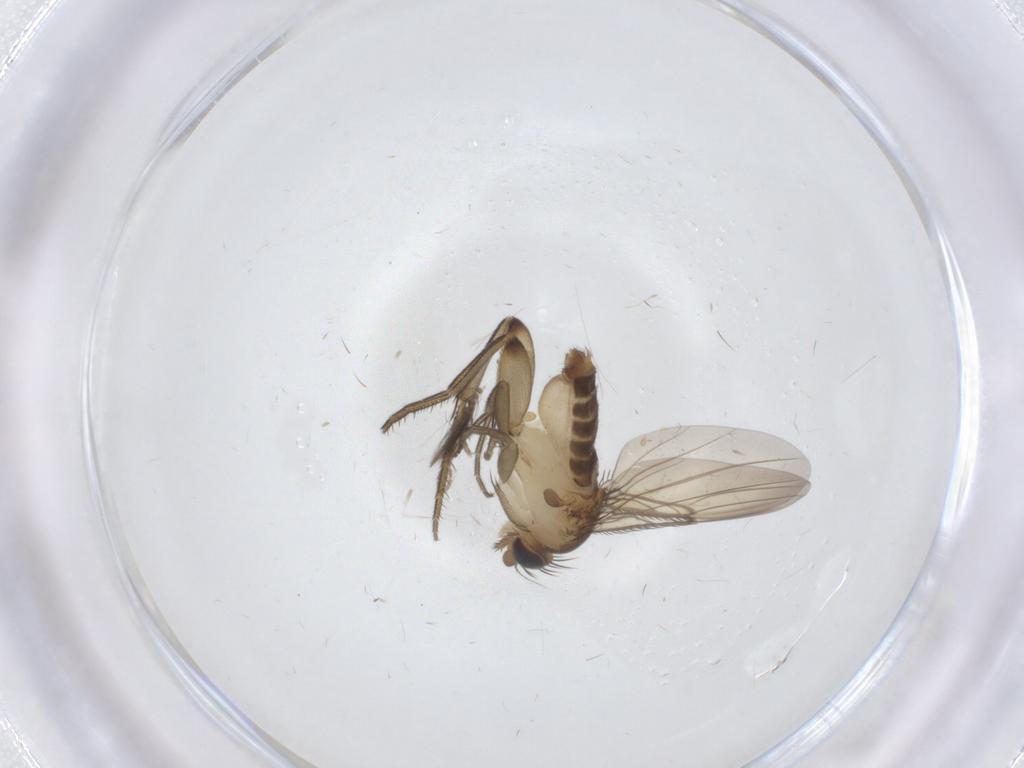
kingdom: Animalia
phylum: Arthropoda
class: Insecta
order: Diptera
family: Phoridae
